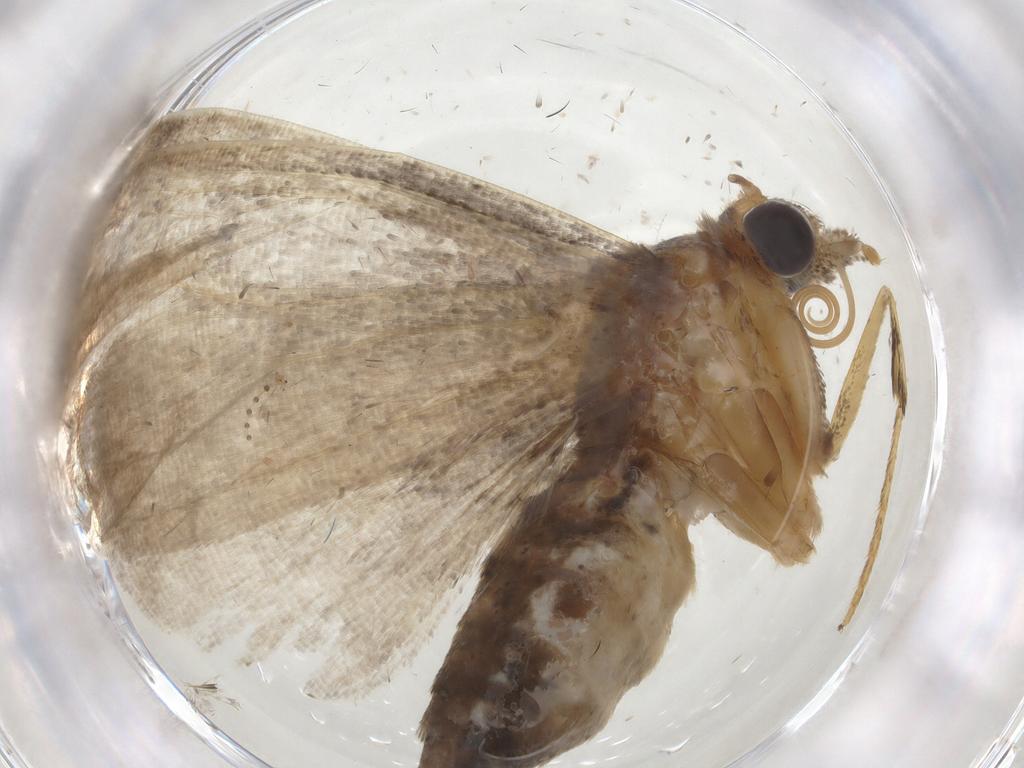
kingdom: Animalia
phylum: Arthropoda
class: Insecta
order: Lepidoptera
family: Geometridae
